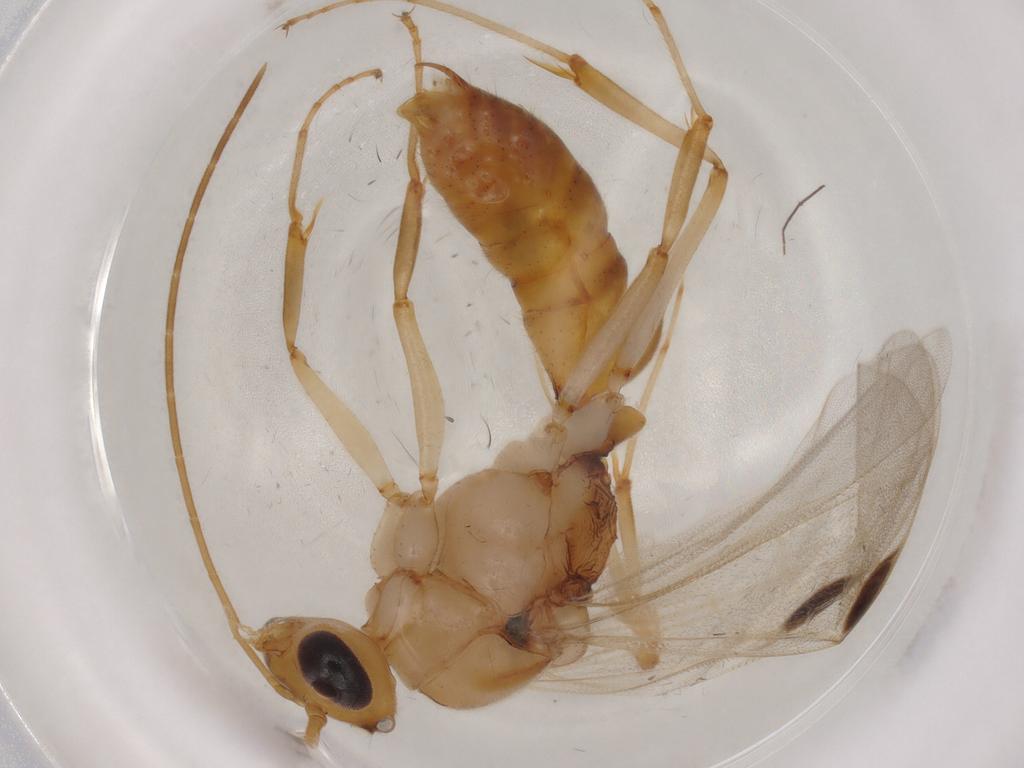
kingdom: Animalia
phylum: Arthropoda
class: Insecta
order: Hymenoptera
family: Formicidae
